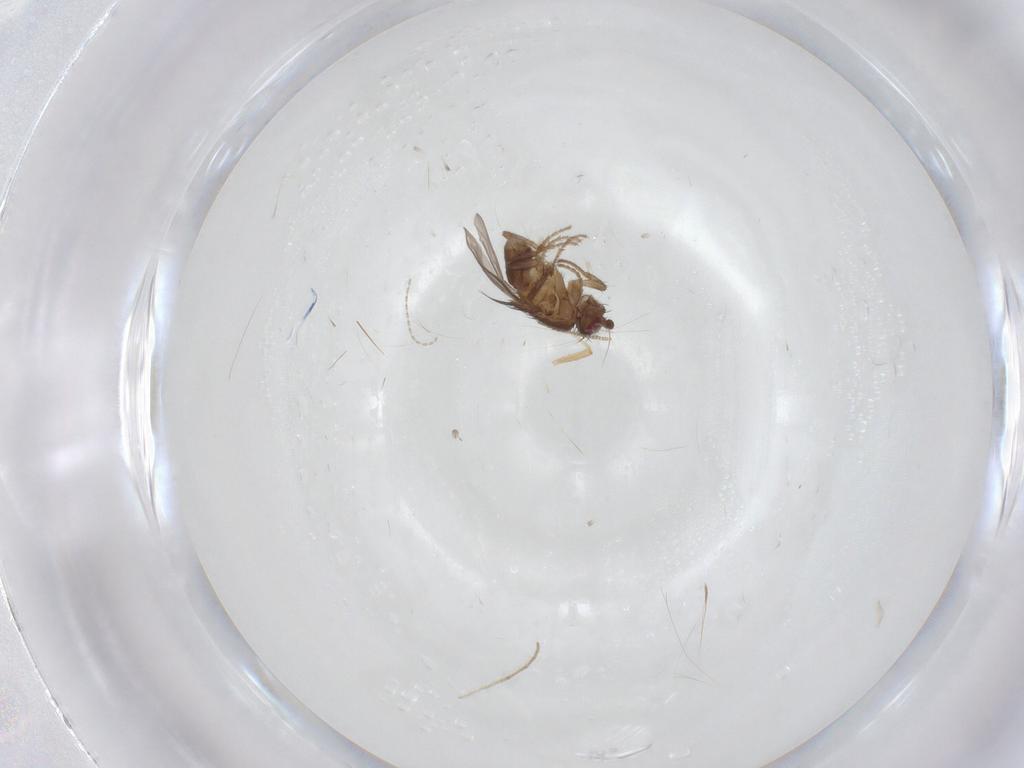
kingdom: Animalia
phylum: Arthropoda
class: Insecta
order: Diptera
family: Sphaeroceridae
